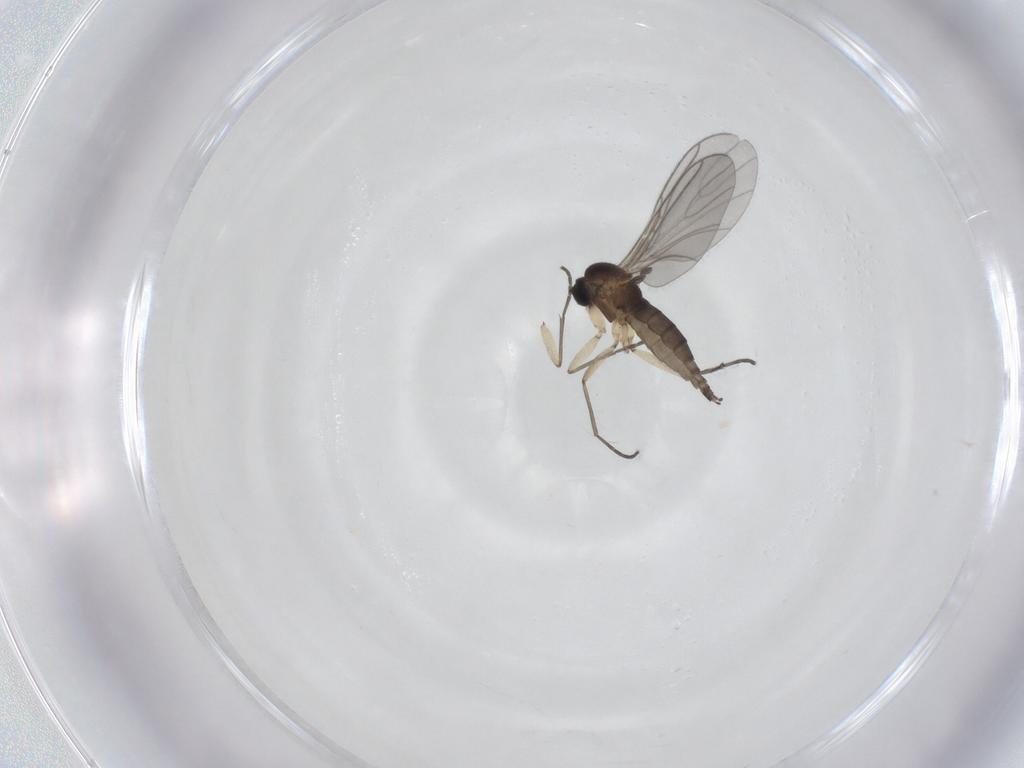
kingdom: Animalia
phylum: Arthropoda
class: Insecta
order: Diptera
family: Sciaridae
